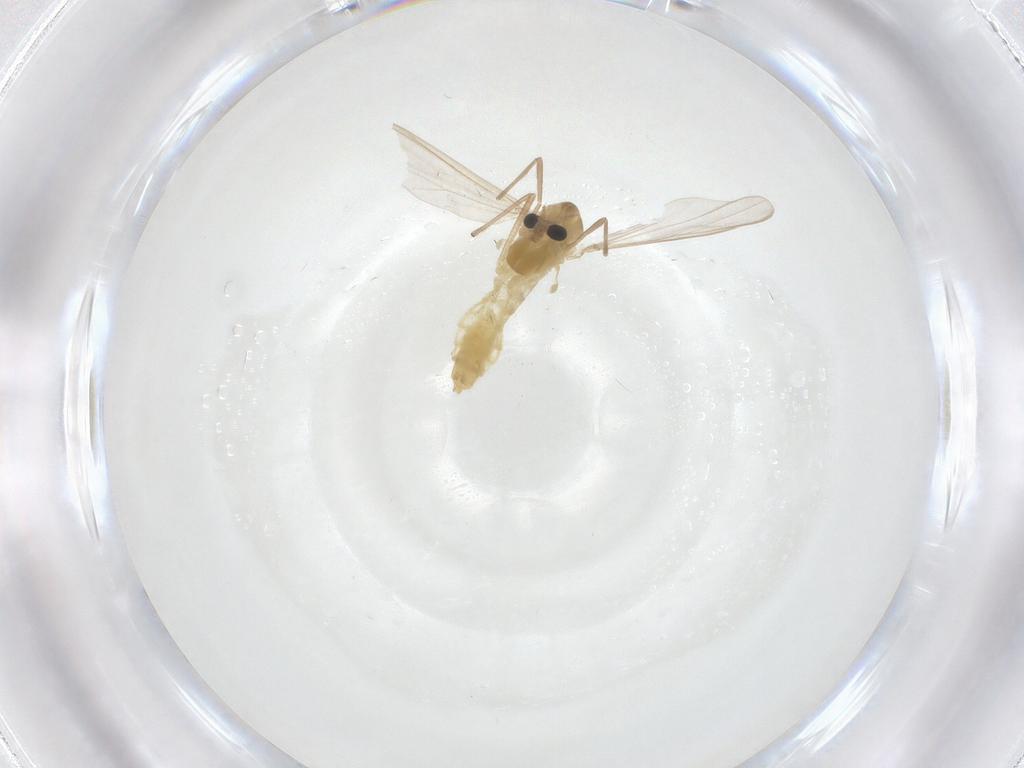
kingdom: Animalia
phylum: Arthropoda
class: Insecta
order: Diptera
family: Chironomidae
